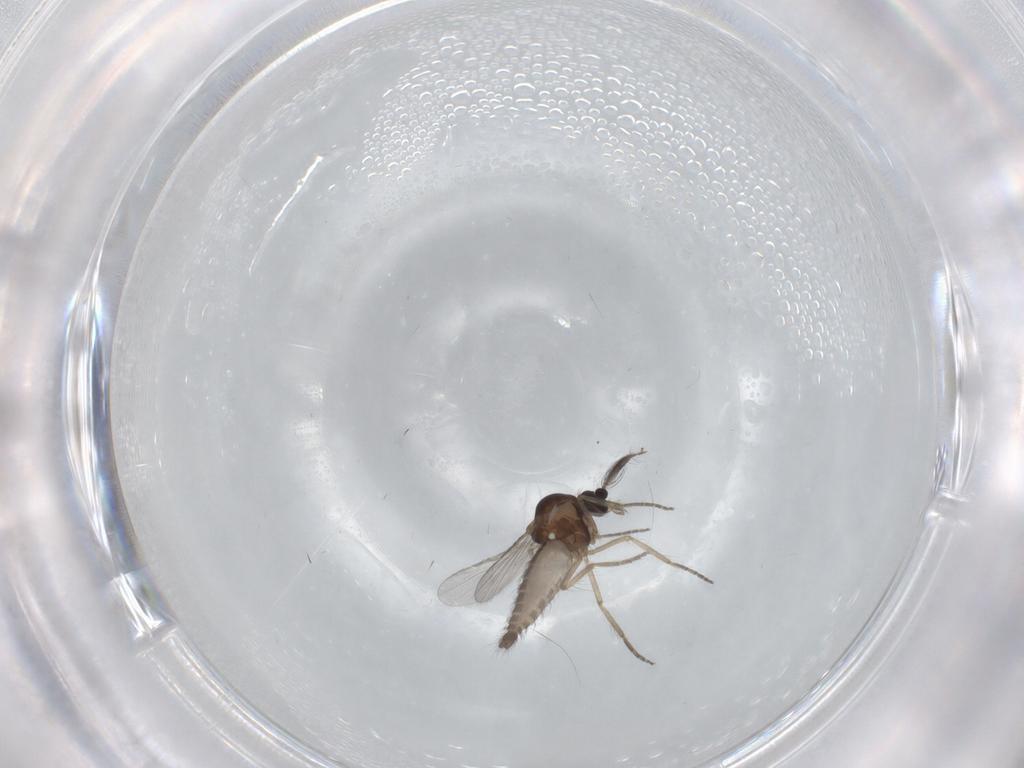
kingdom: Animalia
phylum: Arthropoda
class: Insecta
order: Diptera
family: Ceratopogonidae
